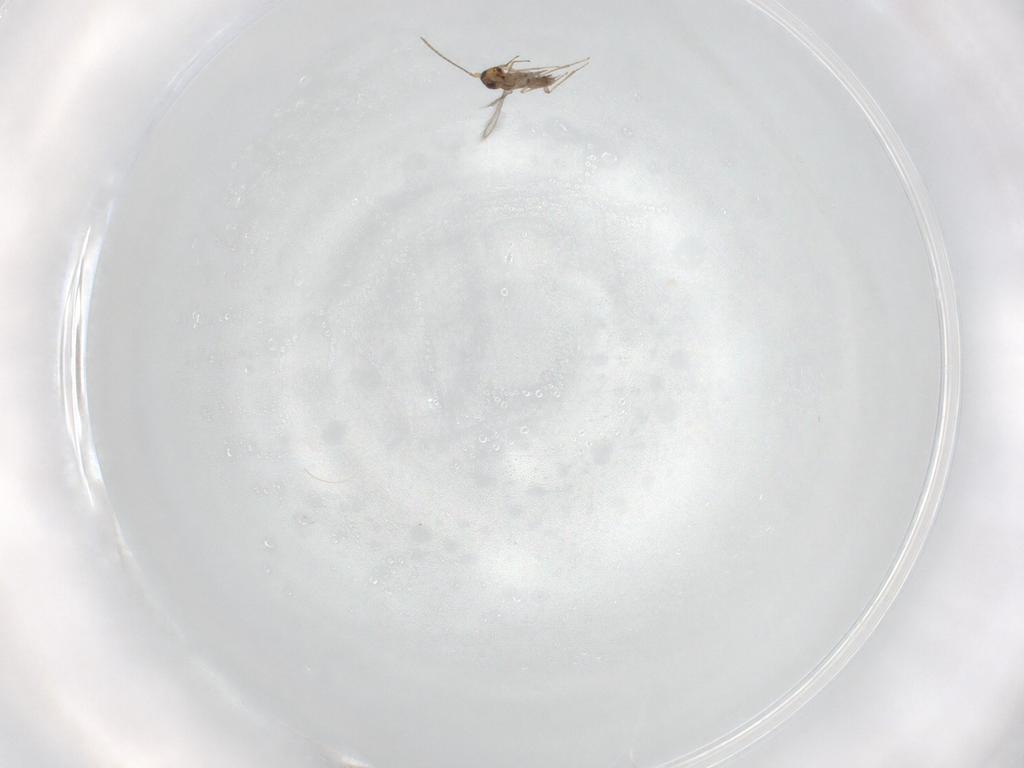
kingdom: Animalia
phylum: Arthropoda
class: Insecta
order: Hymenoptera
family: Mymaridae
